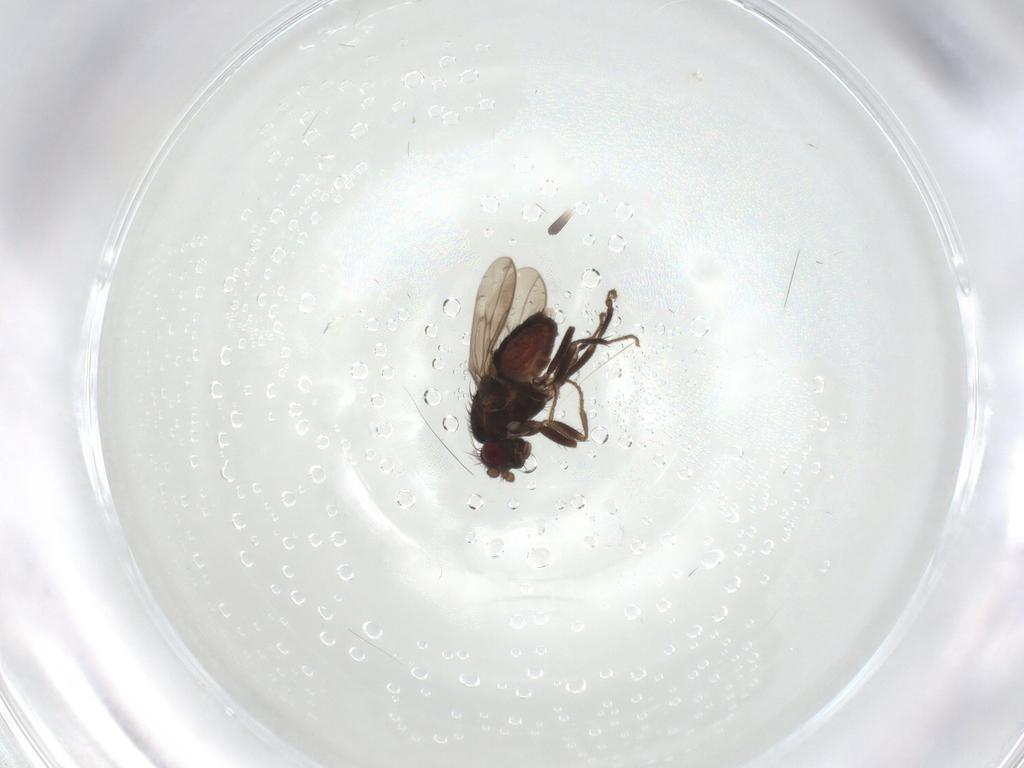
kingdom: Animalia
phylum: Arthropoda
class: Insecta
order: Diptera
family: Sphaeroceridae
